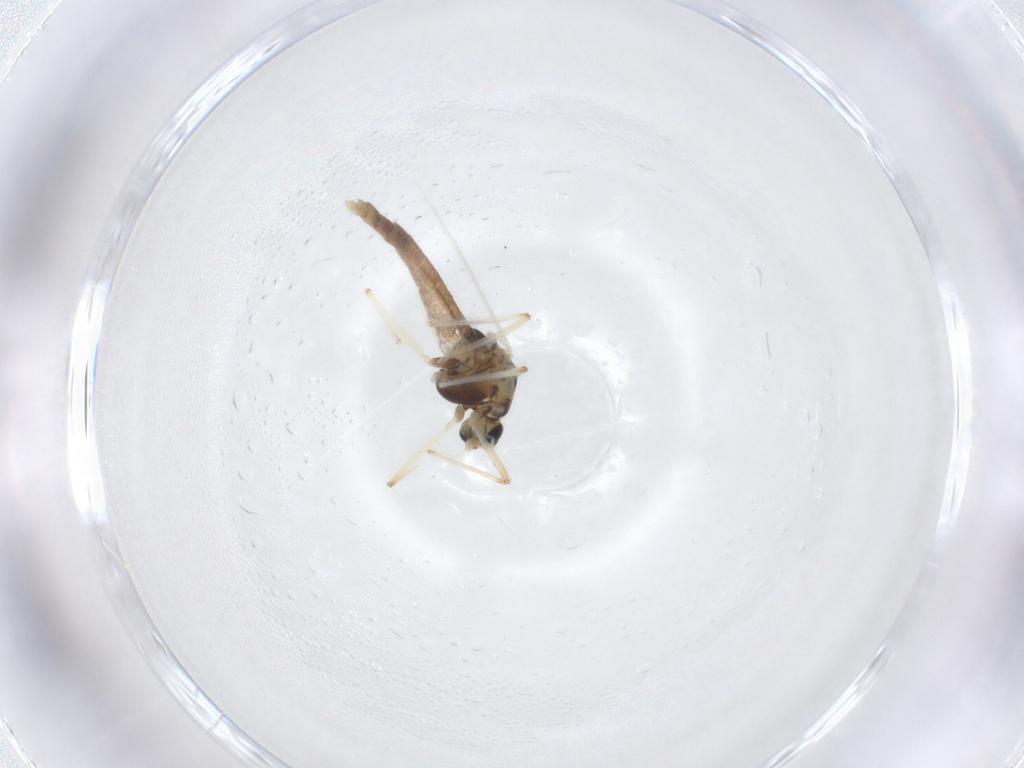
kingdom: Animalia
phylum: Arthropoda
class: Insecta
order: Diptera
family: Chironomidae
